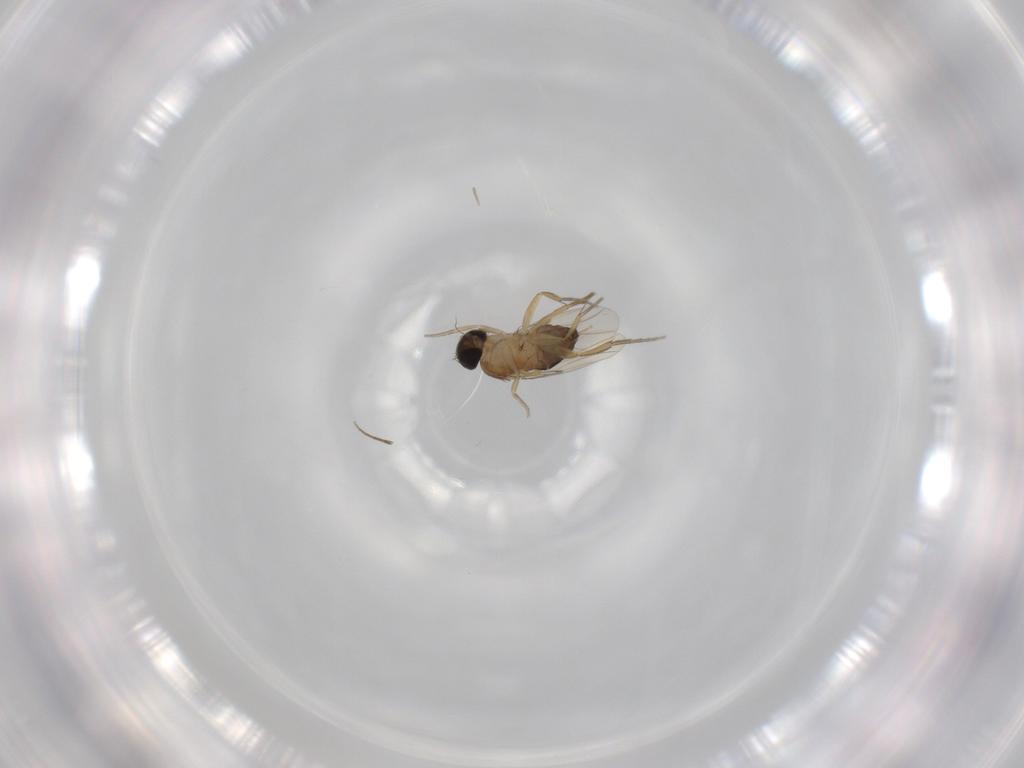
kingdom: Animalia
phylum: Arthropoda
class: Insecta
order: Diptera
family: Phoridae
